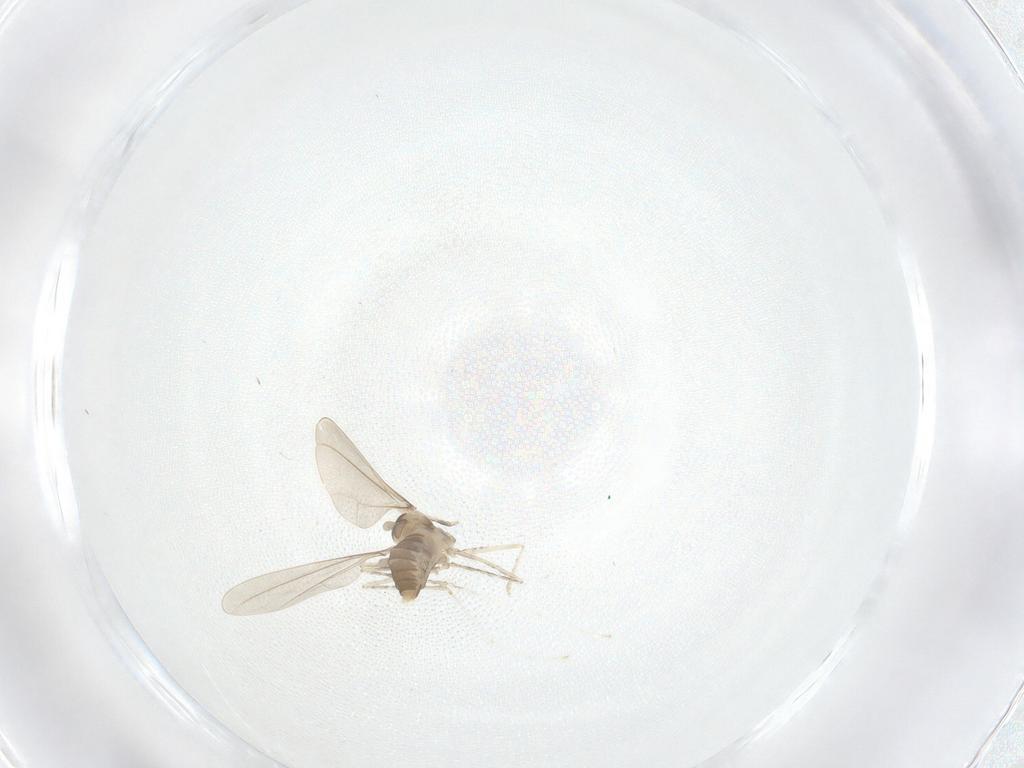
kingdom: Animalia
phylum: Arthropoda
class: Insecta
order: Diptera
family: Cecidomyiidae
